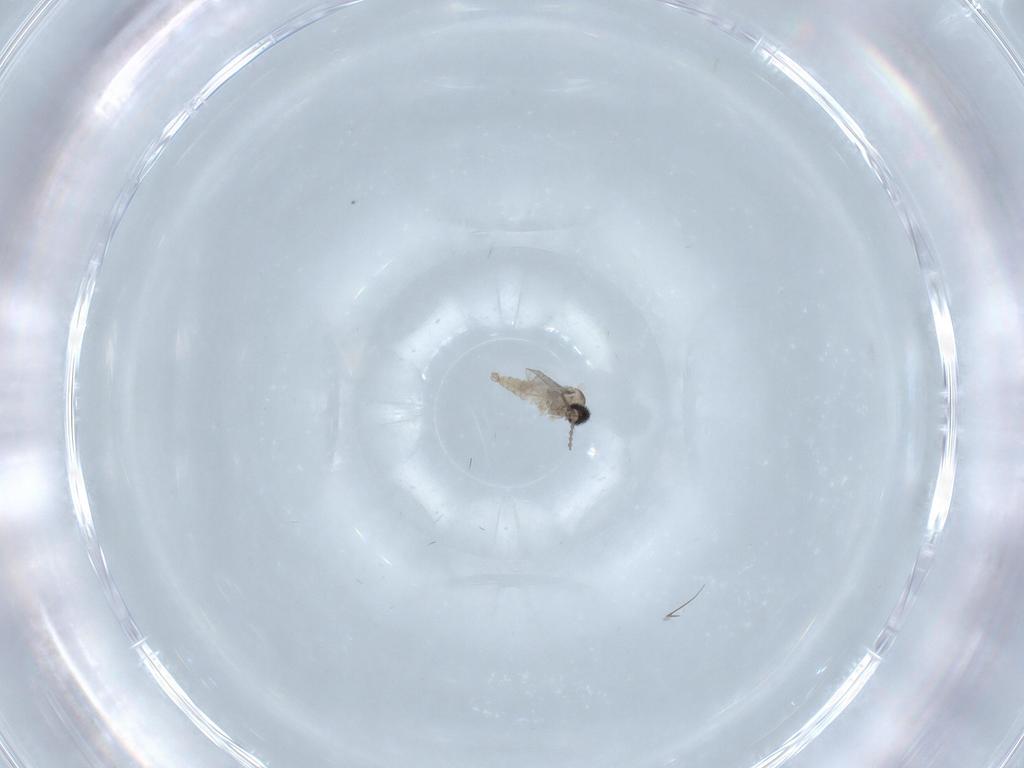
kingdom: Animalia
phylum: Arthropoda
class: Insecta
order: Diptera
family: Cecidomyiidae
